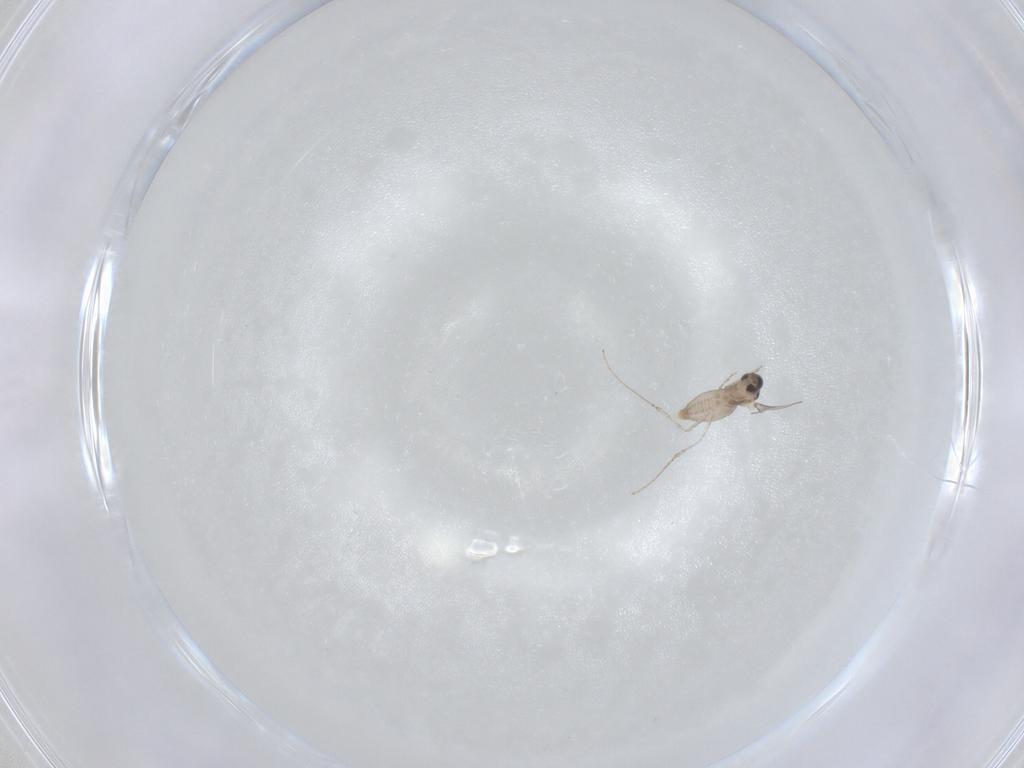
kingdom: Animalia
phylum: Arthropoda
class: Insecta
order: Diptera
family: Cecidomyiidae
